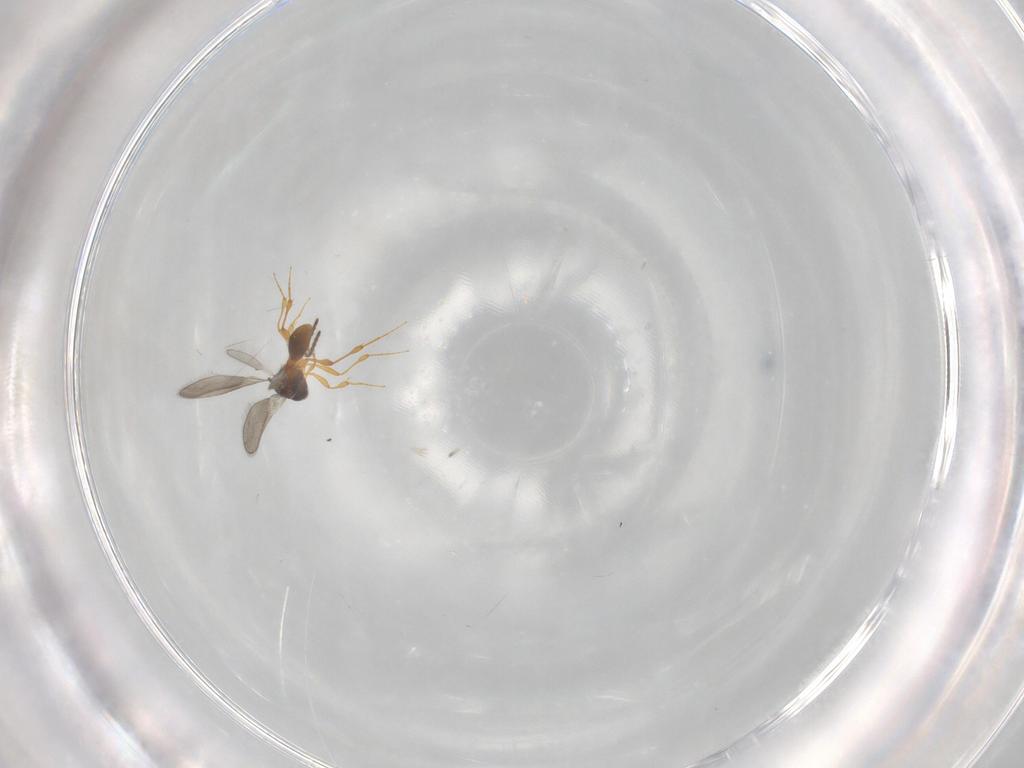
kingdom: Animalia
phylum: Arthropoda
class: Insecta
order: Hymenoptera
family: Platygastridae
